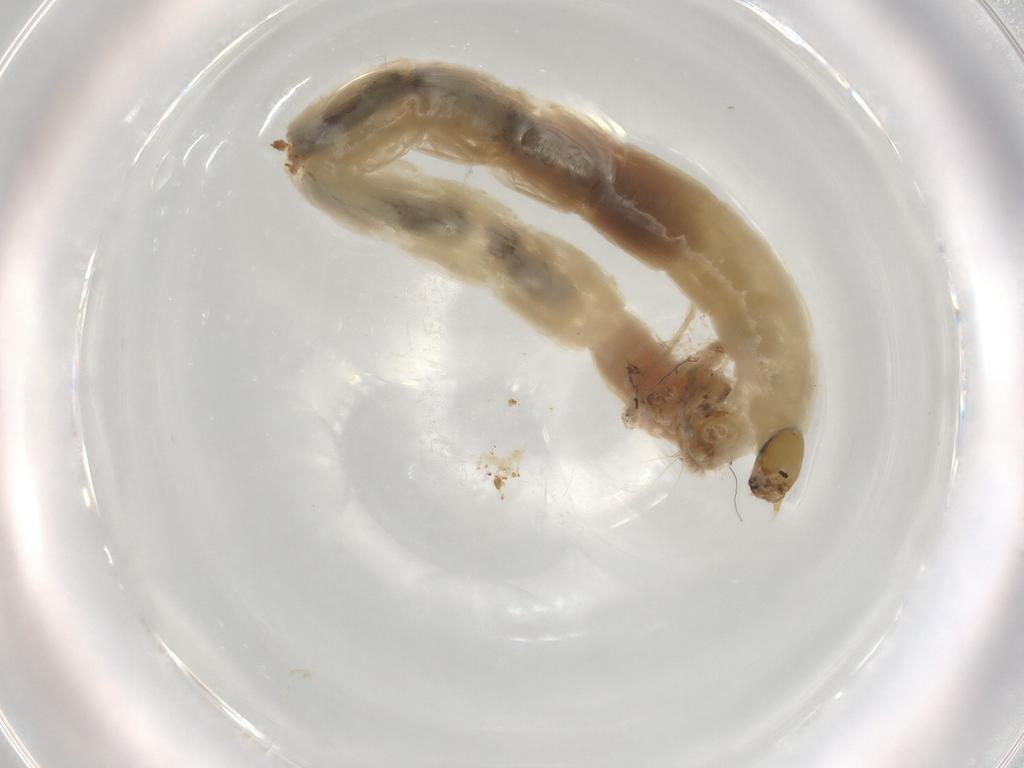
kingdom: Animalia
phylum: Arthropoda
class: Insecta
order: Diptera
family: Chironomidae
